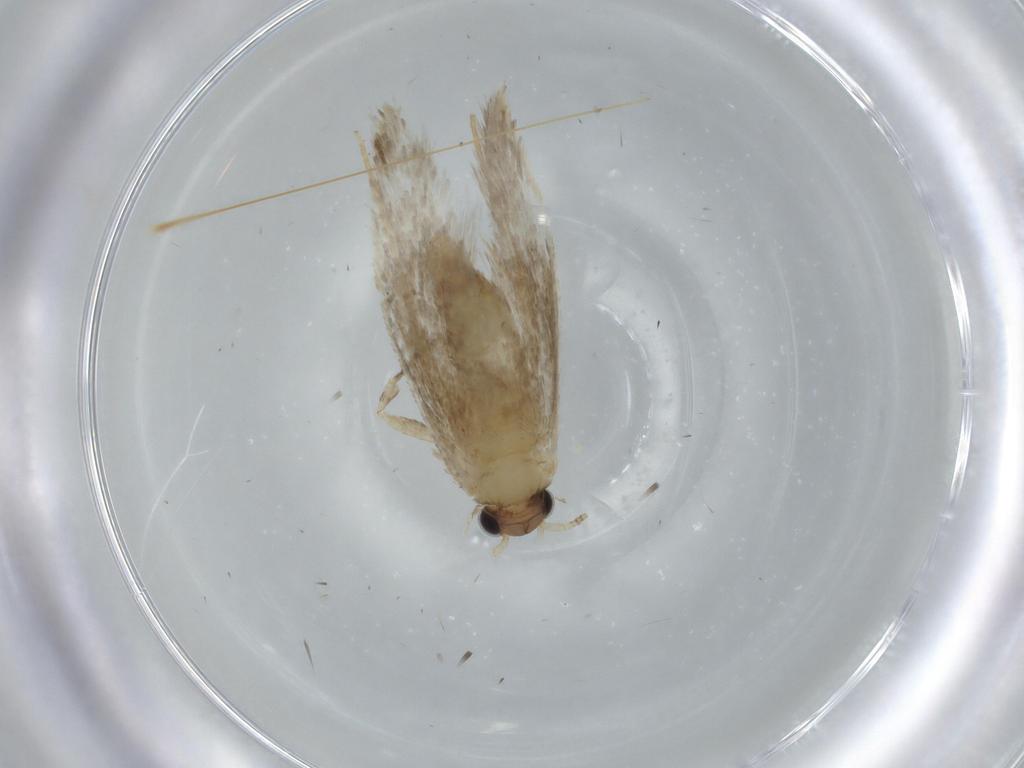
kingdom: Animalia
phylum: Arthropoda
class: Insecta
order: Lepidoptera
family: Tineidae
